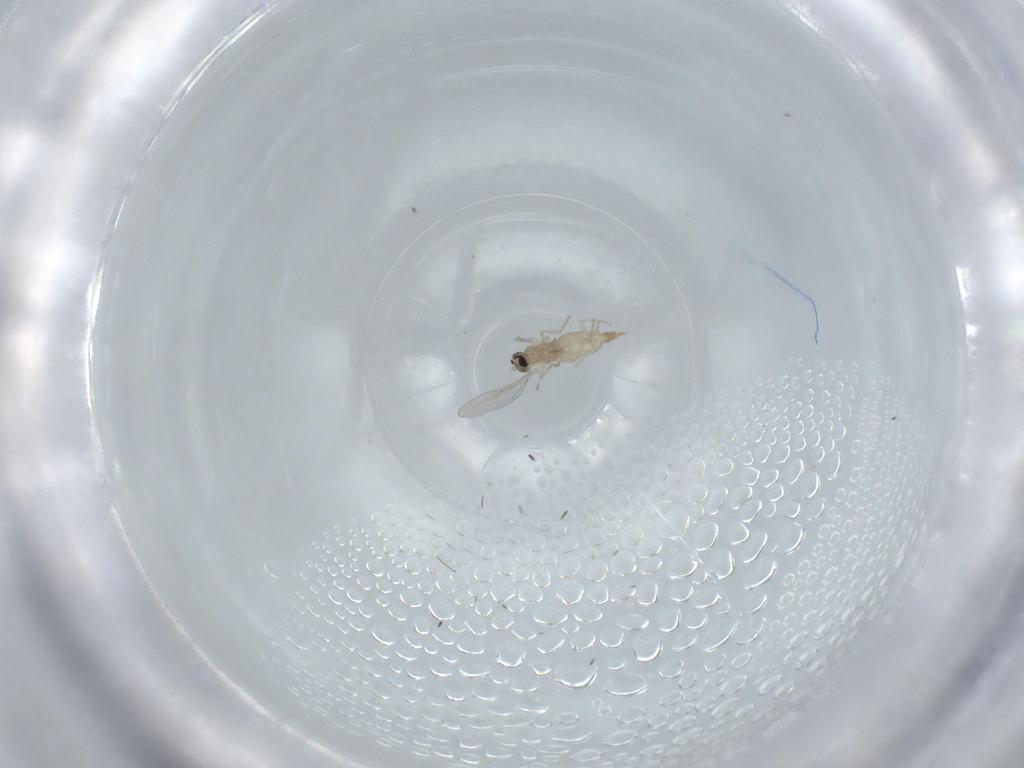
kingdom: Animalia
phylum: Arthropoda
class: Insecta
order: Diptera
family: Cecidomyiidae
